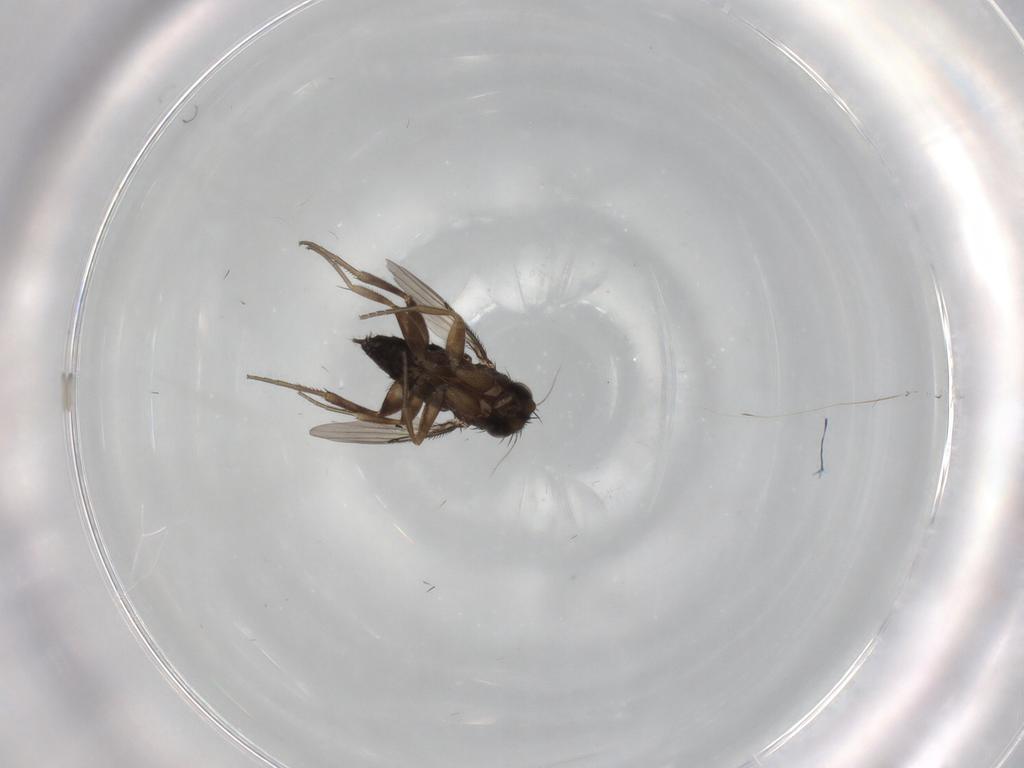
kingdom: Animalia
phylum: Arthropoda
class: Insecta
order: Diptera
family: Phoridae
